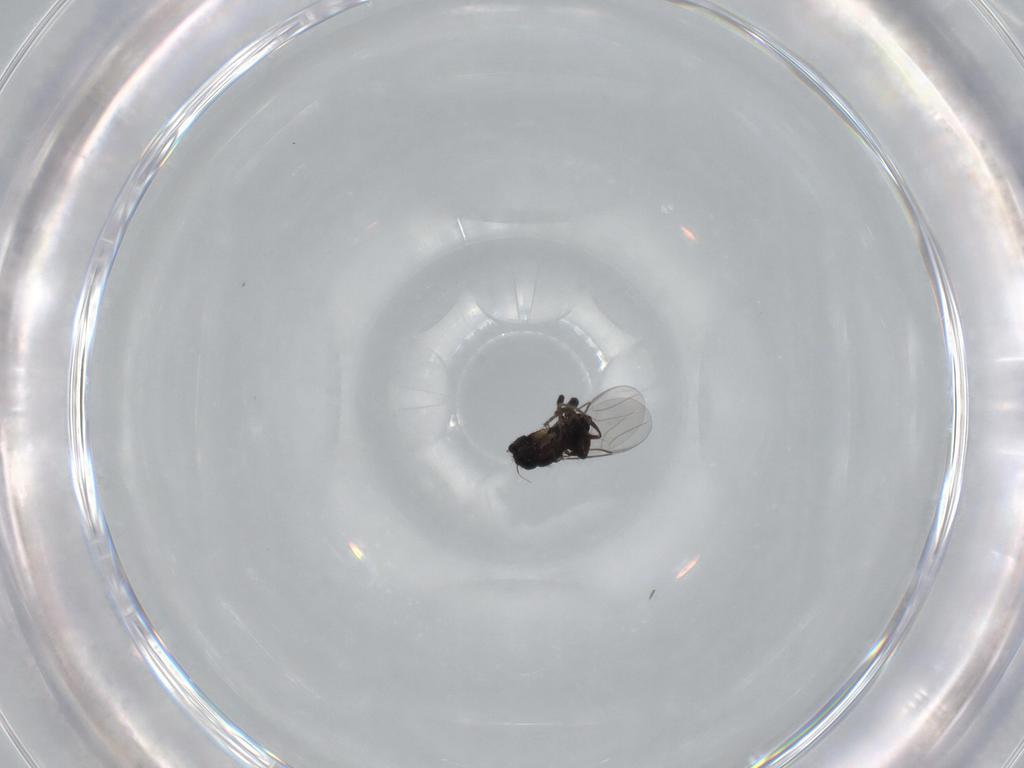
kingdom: Animalia
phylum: Arthropoda
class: Insecta
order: Diptera
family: Phoridae
